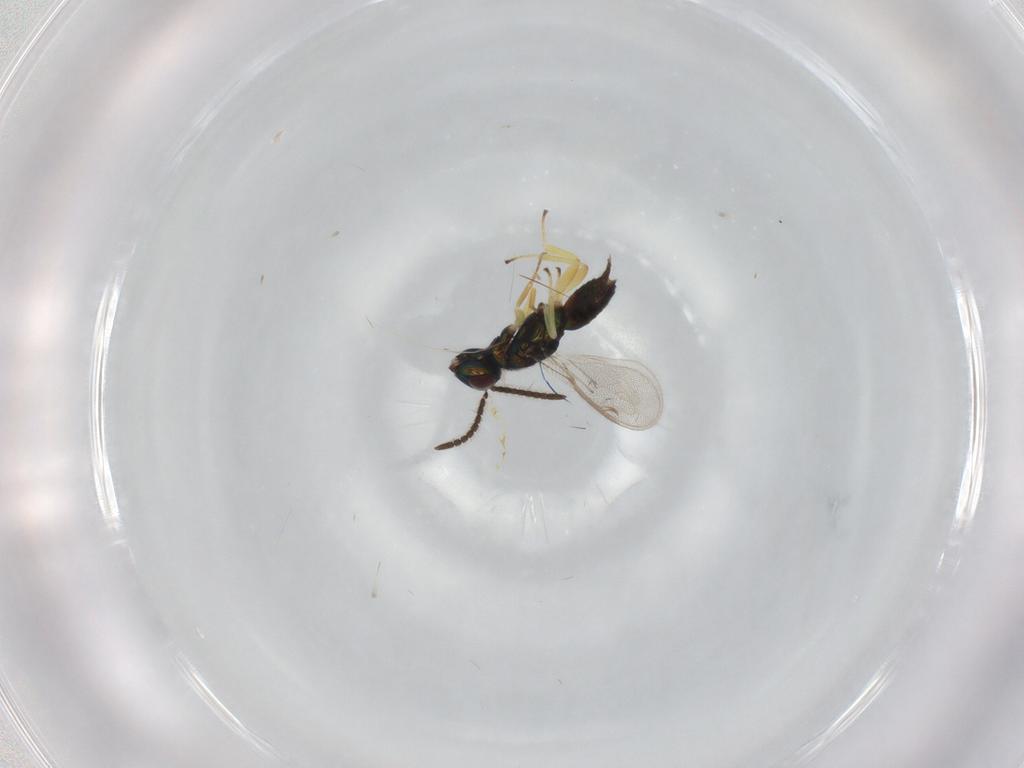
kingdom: Animalia
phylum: Arthropoda
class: Insecta
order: Hymenoptera
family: Eupelmidae
